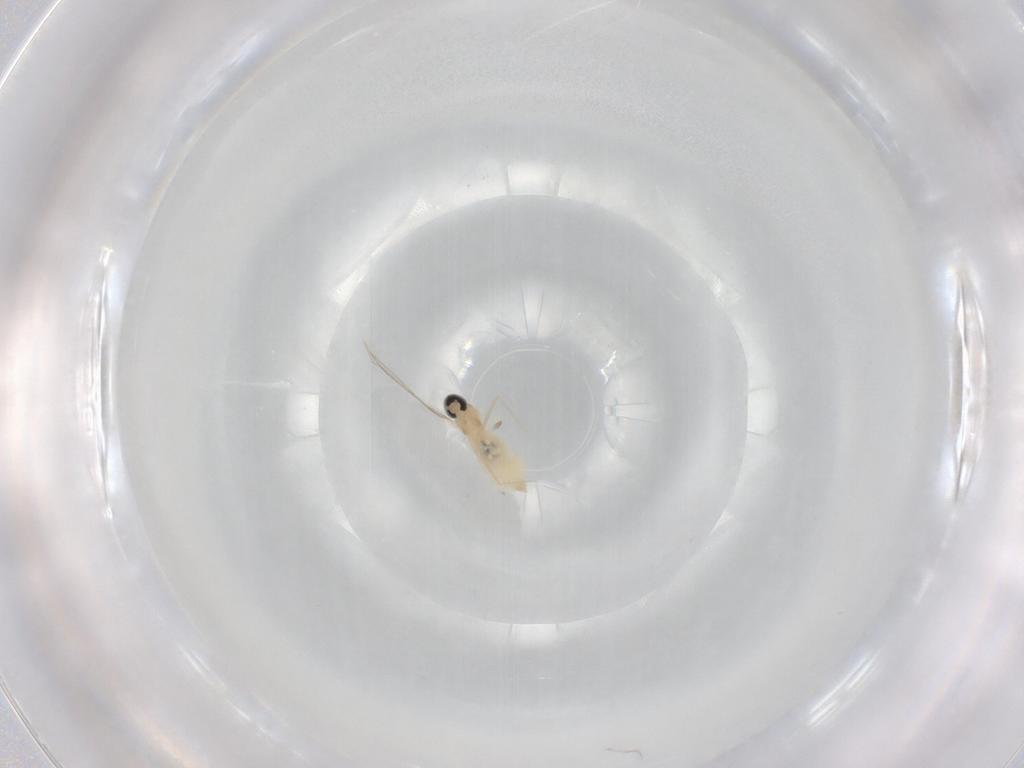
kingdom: Animalia
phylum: Arthropoda
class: Insecta
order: Diptera
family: Cecidomyiidae
